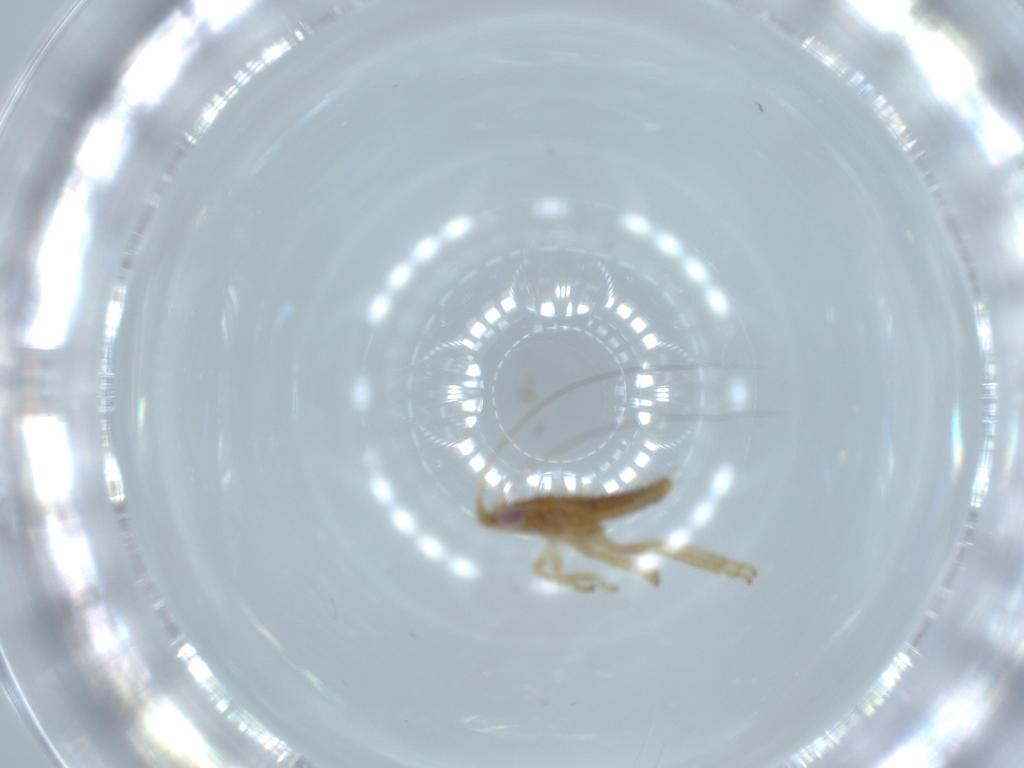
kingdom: Animalia
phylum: Arthropoda
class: Insecta
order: Hemiptera
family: Cicadellidae
